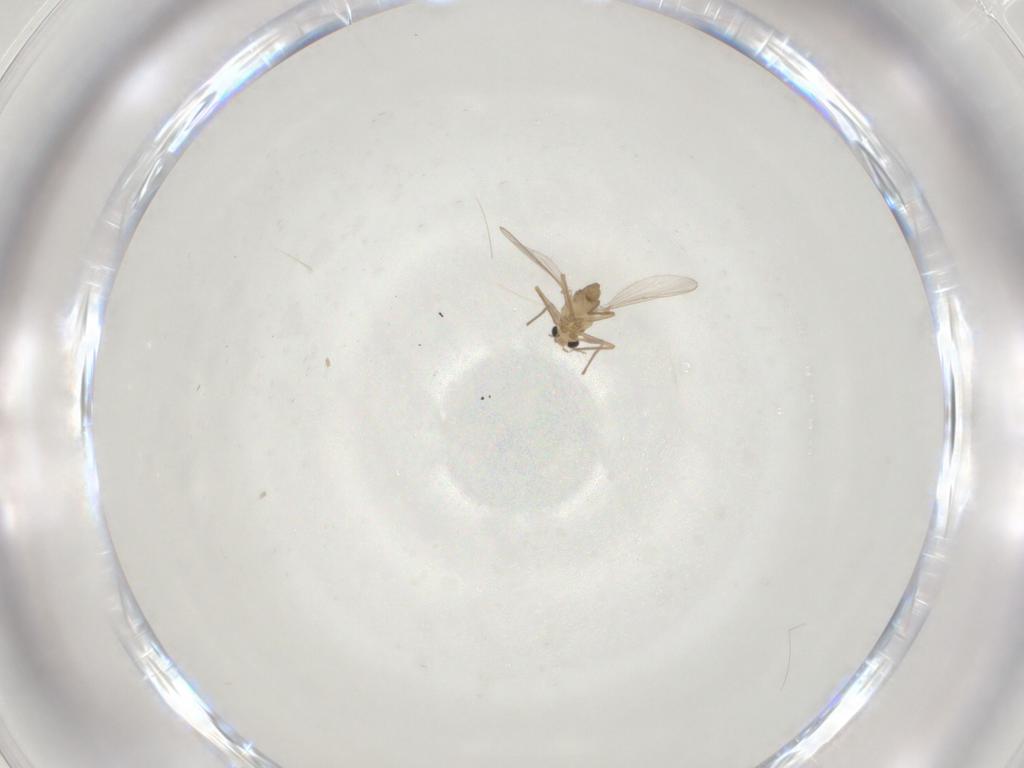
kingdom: Animalia
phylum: Arthropoda
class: Insecta
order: Diptera
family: Chironomidae
